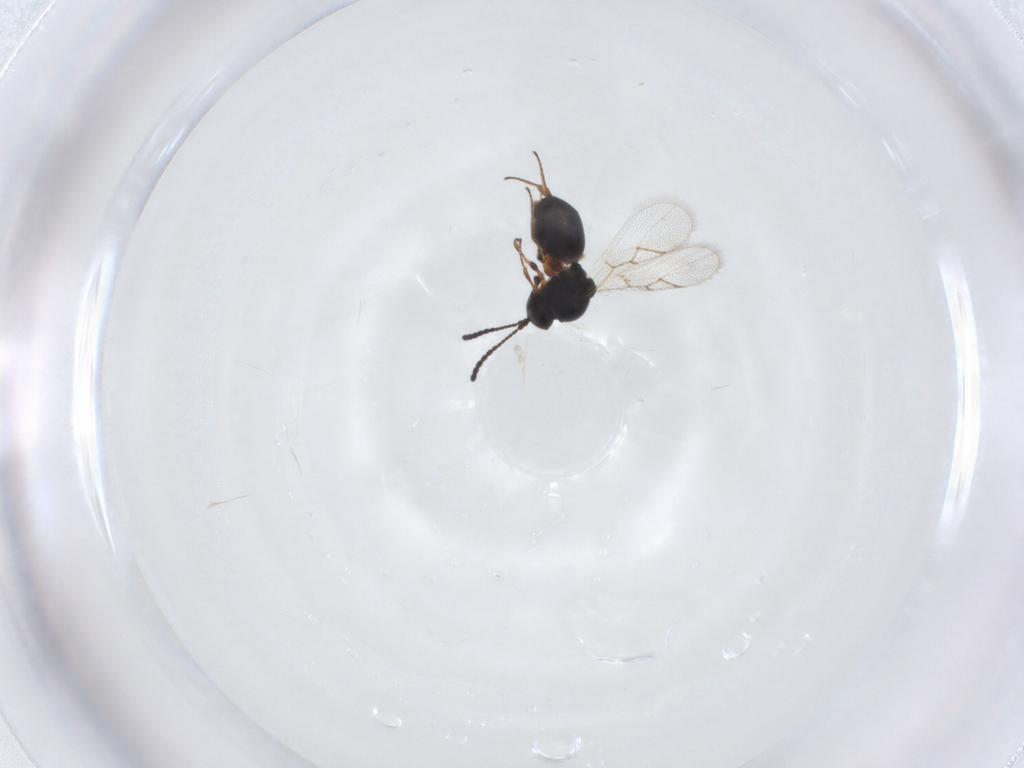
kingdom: Animalia
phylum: Arthropoda
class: Insecta
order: Hymenoptera
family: Figitidae
